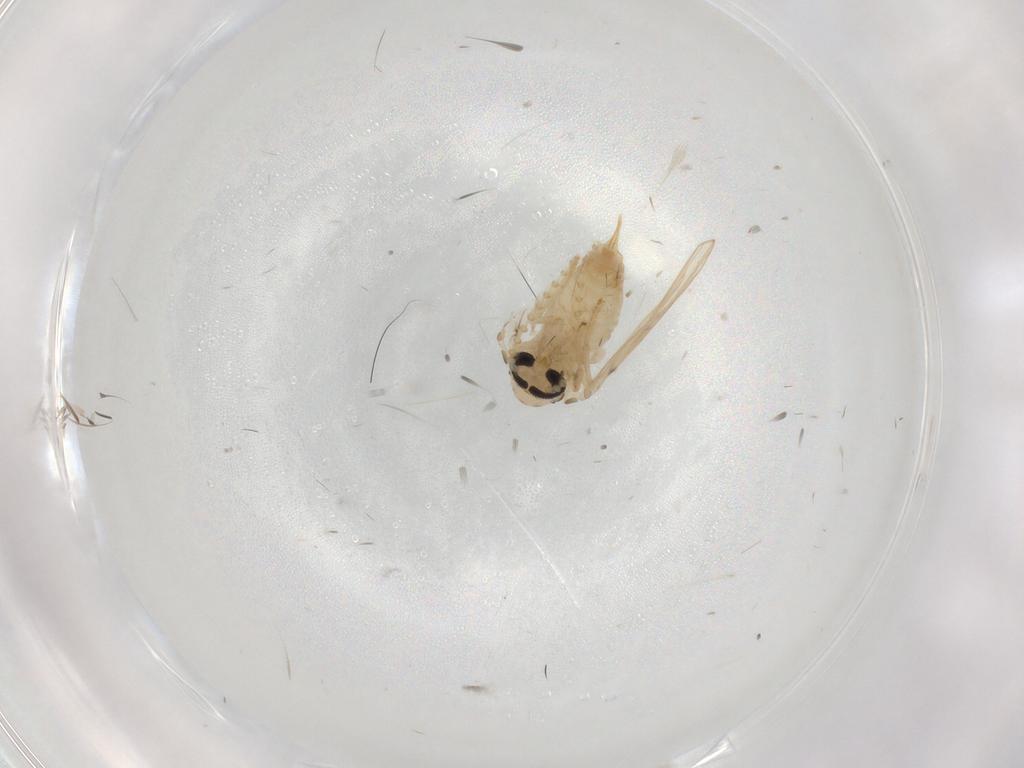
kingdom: Animalia
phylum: Arthropoda
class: Insecta
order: Diptera
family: Psychodidae
